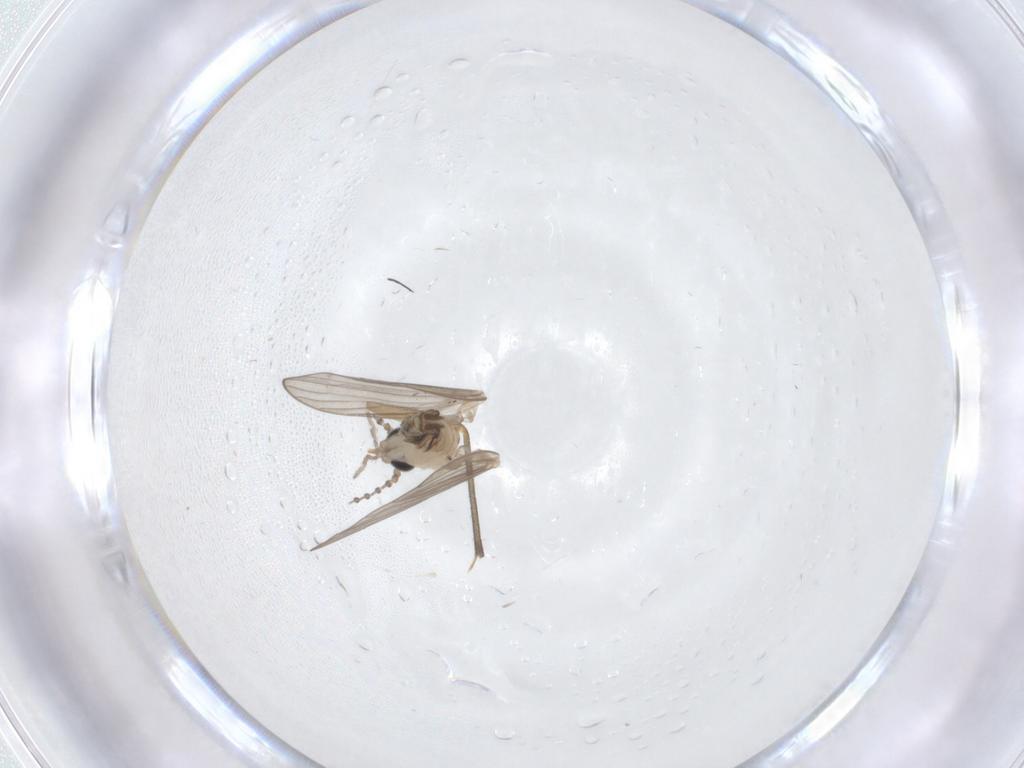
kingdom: Animalia
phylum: Arthropoda
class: Insecta
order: Diptera
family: Psychodidae
